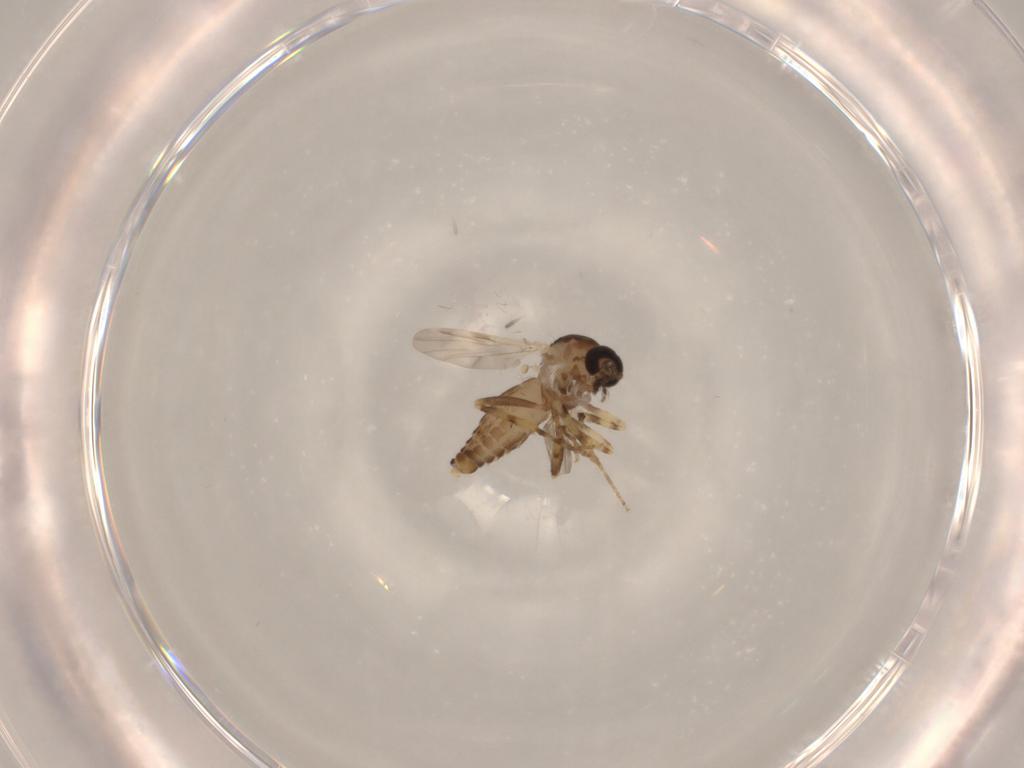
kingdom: Animalia
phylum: Arthropoda
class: Insecta
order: Diptera
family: Ceratopogonidae
